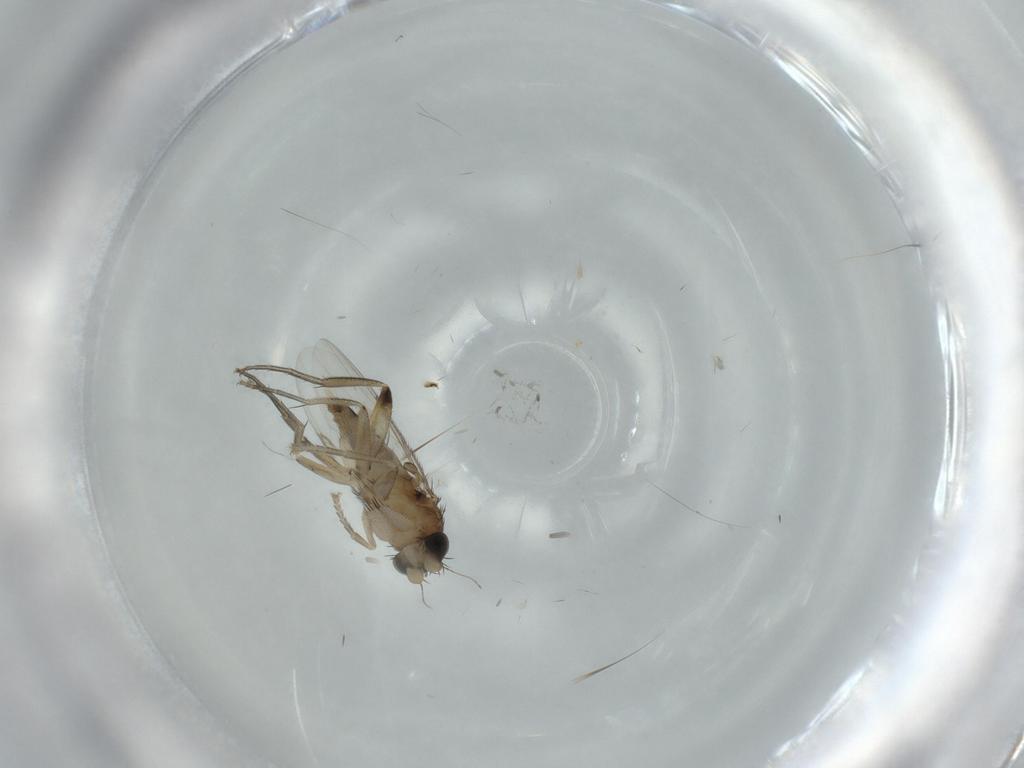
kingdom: Animalia
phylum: Arthropoda
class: Insecta
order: Diptera
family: Phoridae
